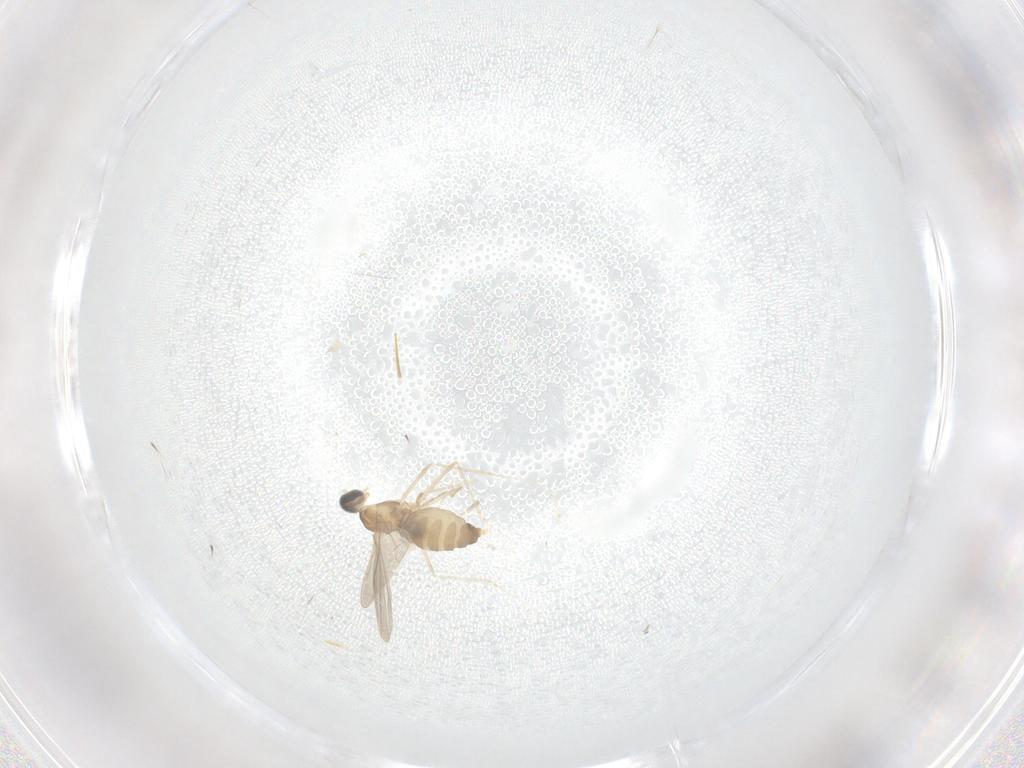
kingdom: Animalia
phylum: Arthropoda
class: Insecta
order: Diptera
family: Cecidomyiidae
